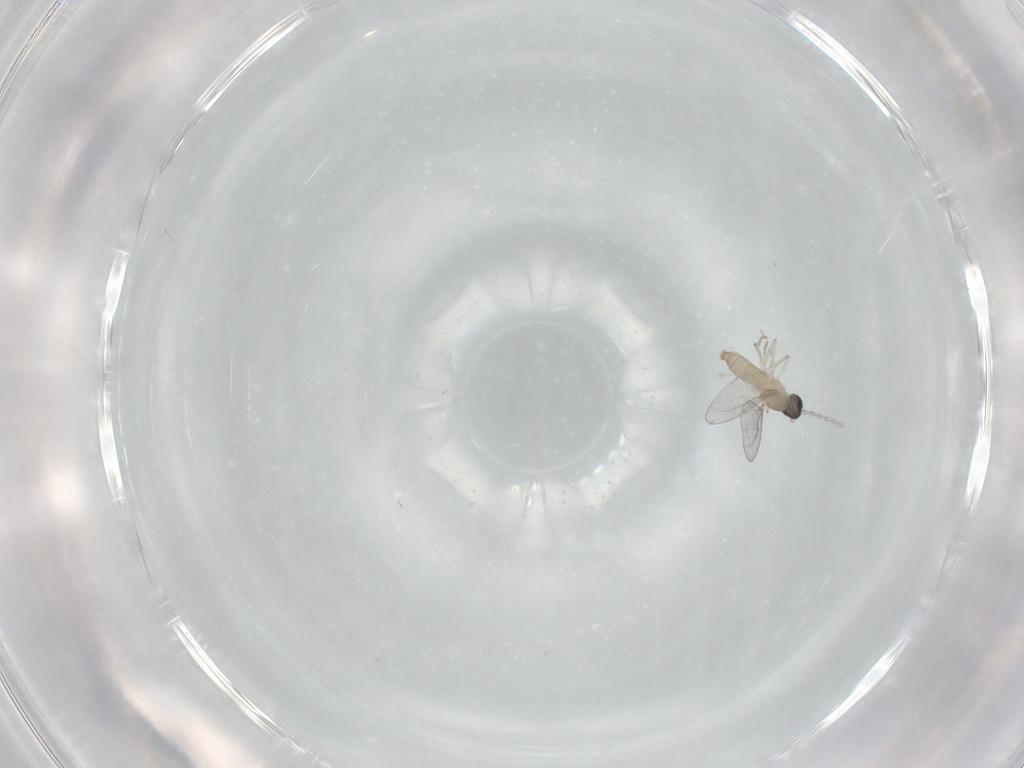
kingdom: Animalia
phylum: Arthropoda
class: Insecta
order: Diptera
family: Cecidomyiidae
